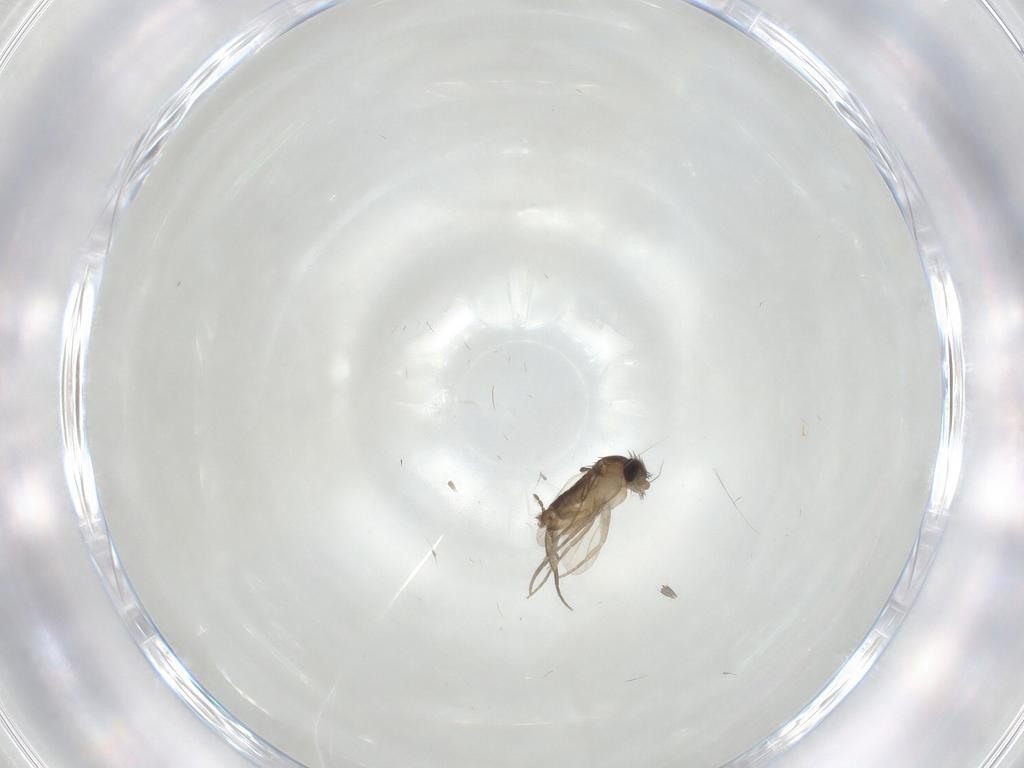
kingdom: Animalia
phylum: Arthropoda
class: Insecta
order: Diptera
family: Phoridae
